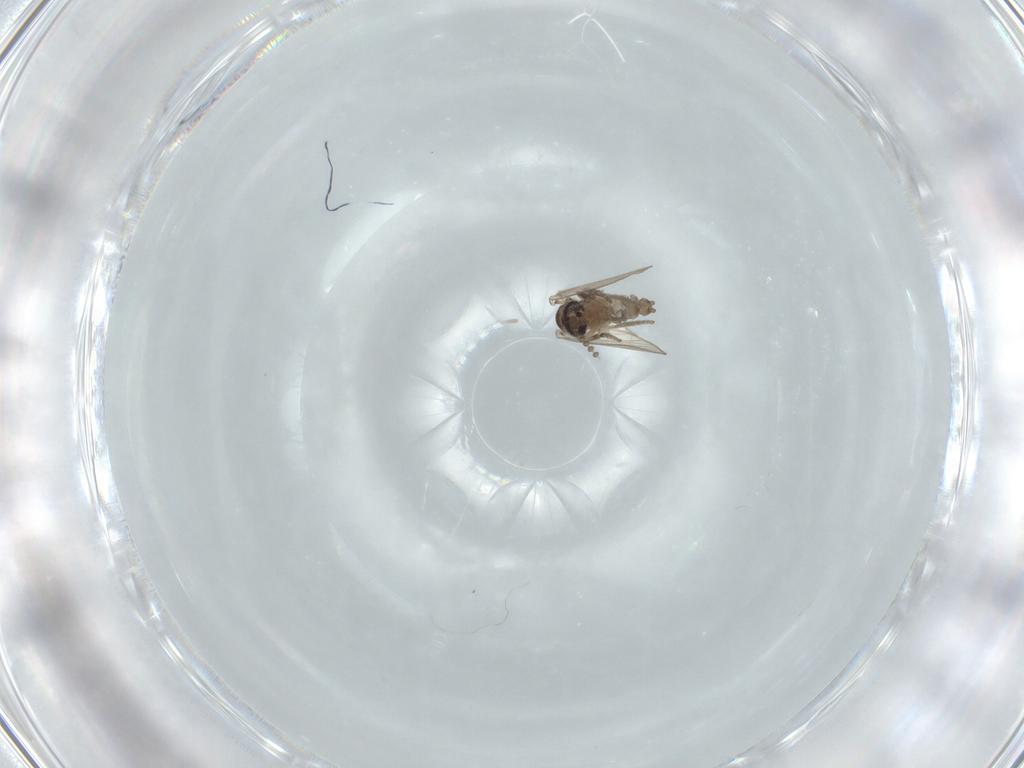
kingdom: Animalia
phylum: Arthropoda
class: Insecta
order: Diptera
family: Psychodidae
